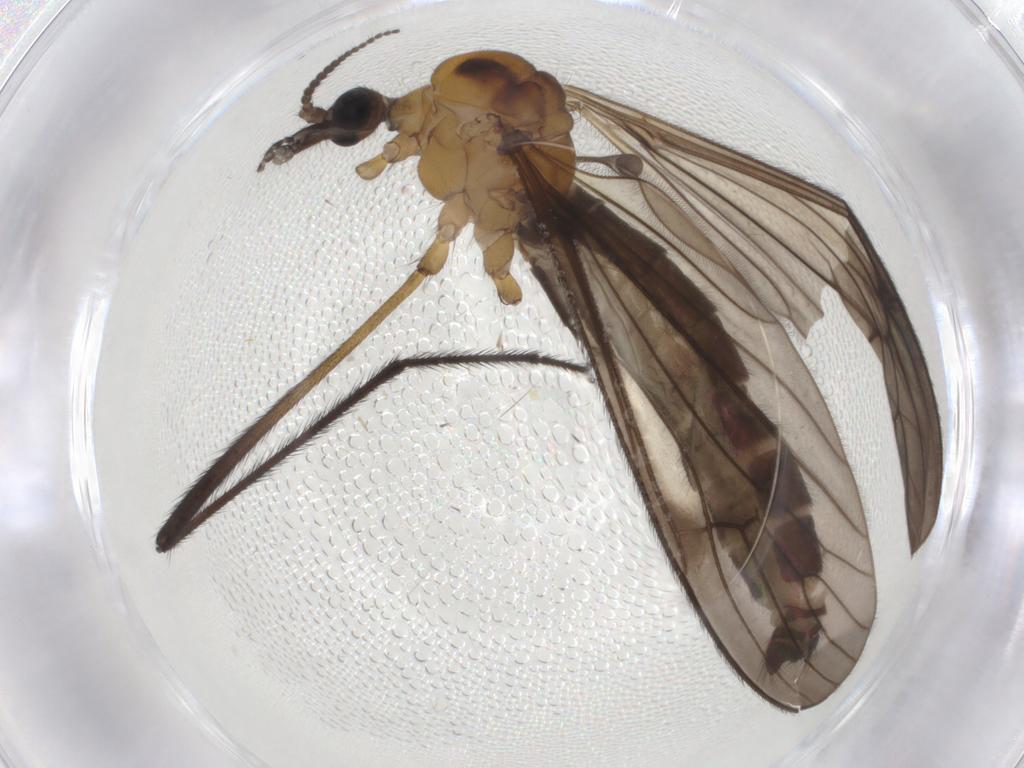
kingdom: Animalia
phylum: Arthropoda
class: Insecta
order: Diptera
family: Limoniidae
